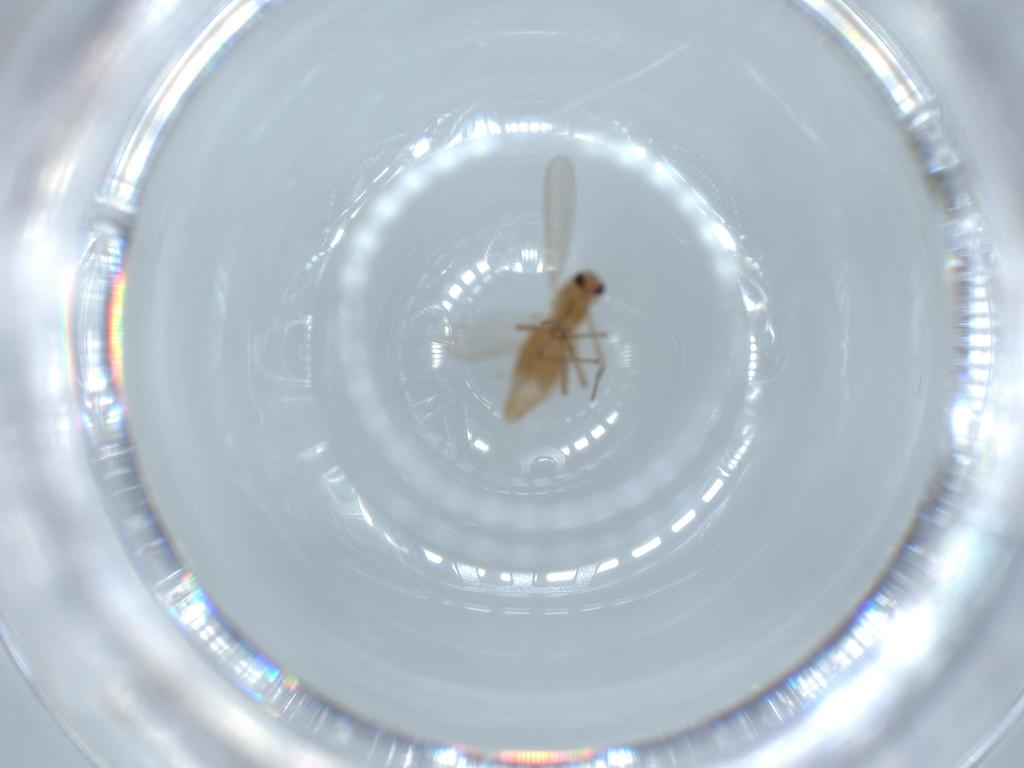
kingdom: Animalia
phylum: Arthropoda
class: Insecta
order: Diptera
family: Chironomidae
